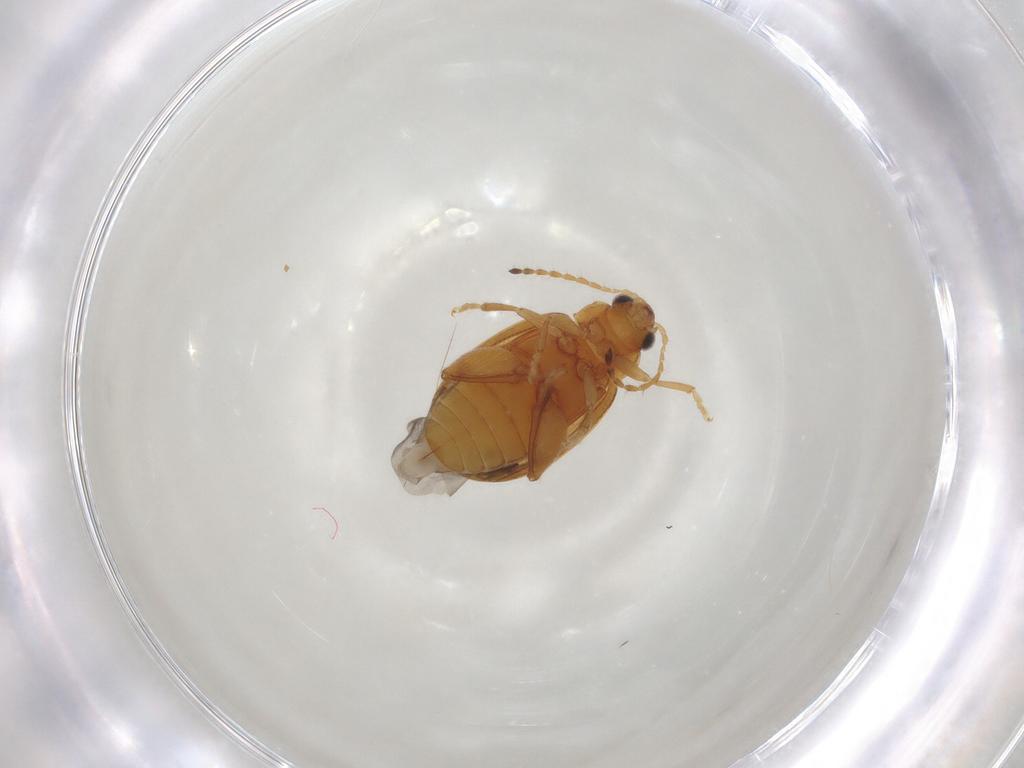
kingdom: Animalia
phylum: Arthropoda
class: Insecta
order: Coleoptera
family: Chrysomelidae
